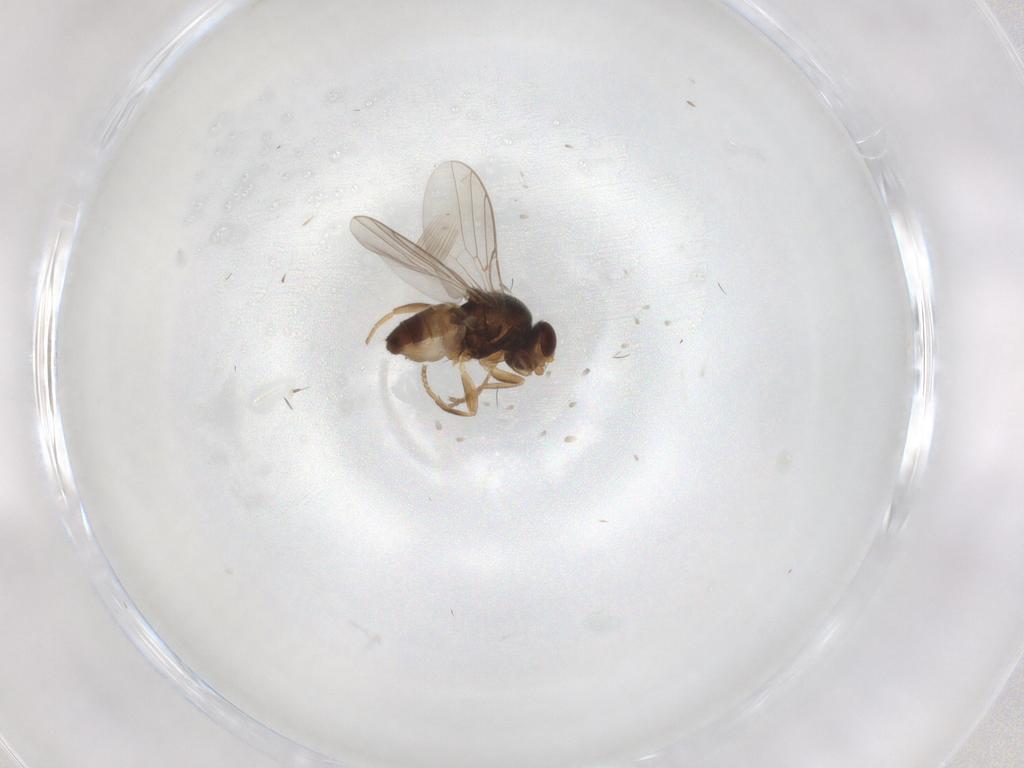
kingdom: Animalia
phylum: Arthropoda
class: Insecta
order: Diptera
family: Chloropidae
